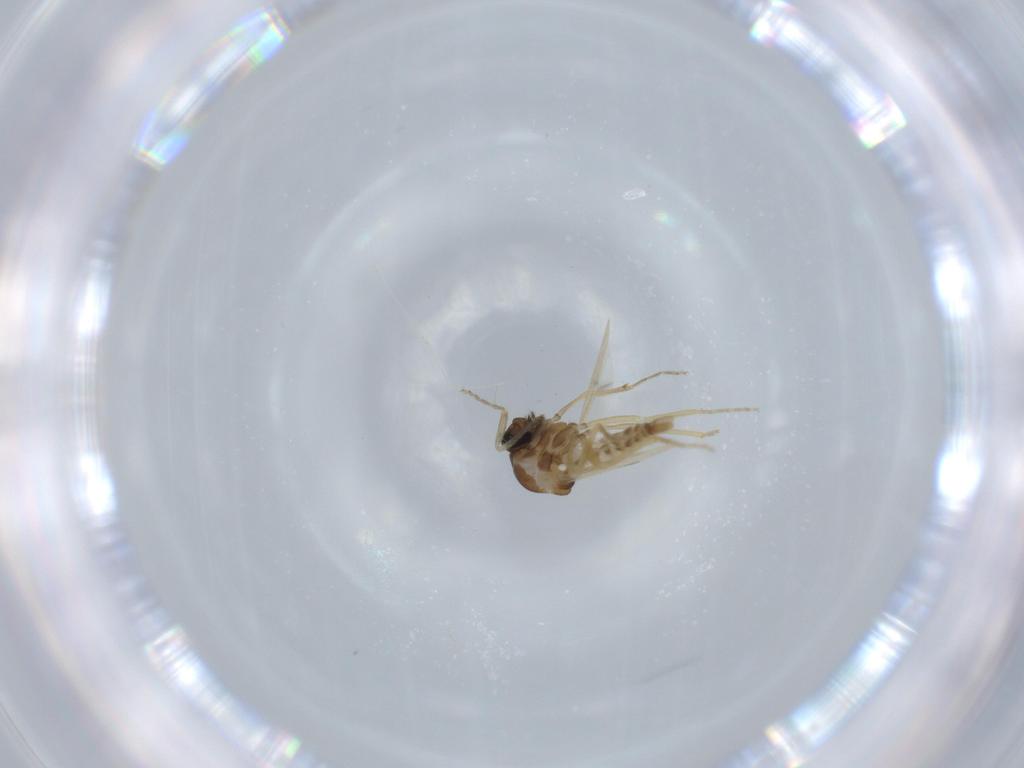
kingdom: Animalia
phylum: Arthropoda
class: Insecta
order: Diptera
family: Ceratopogonidae
